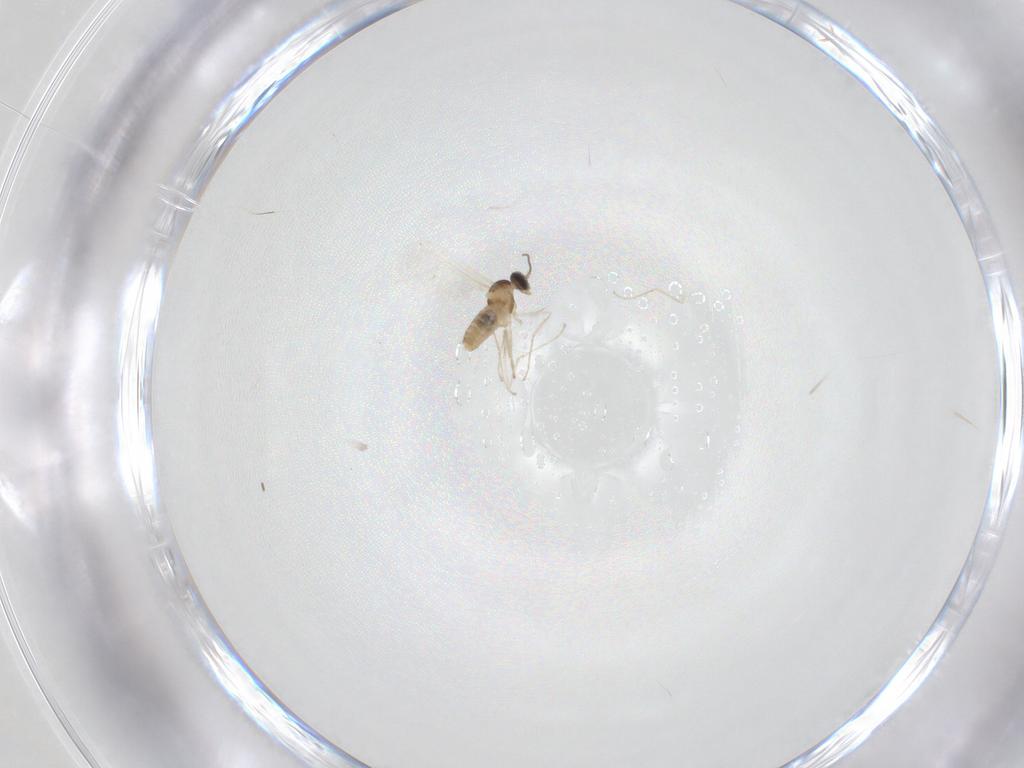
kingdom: Animalia
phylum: Arthropoda
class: Insecta
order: Diptera
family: Cecidomyiidae
